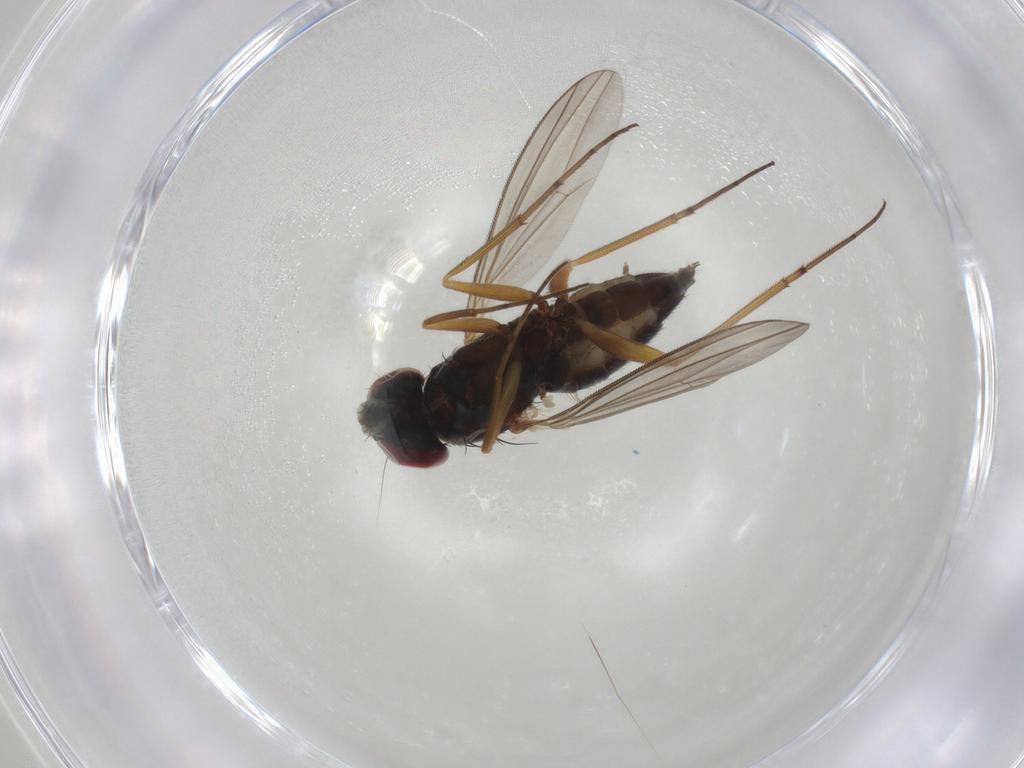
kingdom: Animalia
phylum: Arthropoda
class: Insecta
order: Diptera
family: Dolichopodidae
